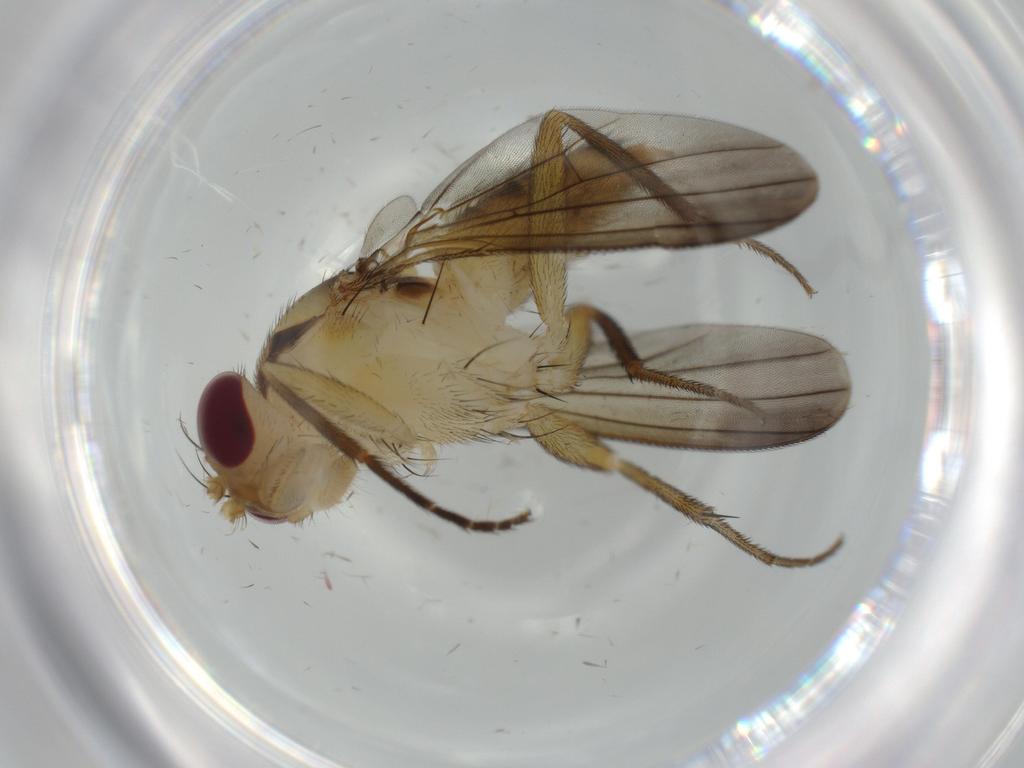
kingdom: Animalia
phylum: Arthropoda
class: Insecta
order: Diptera
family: Clusiidae
